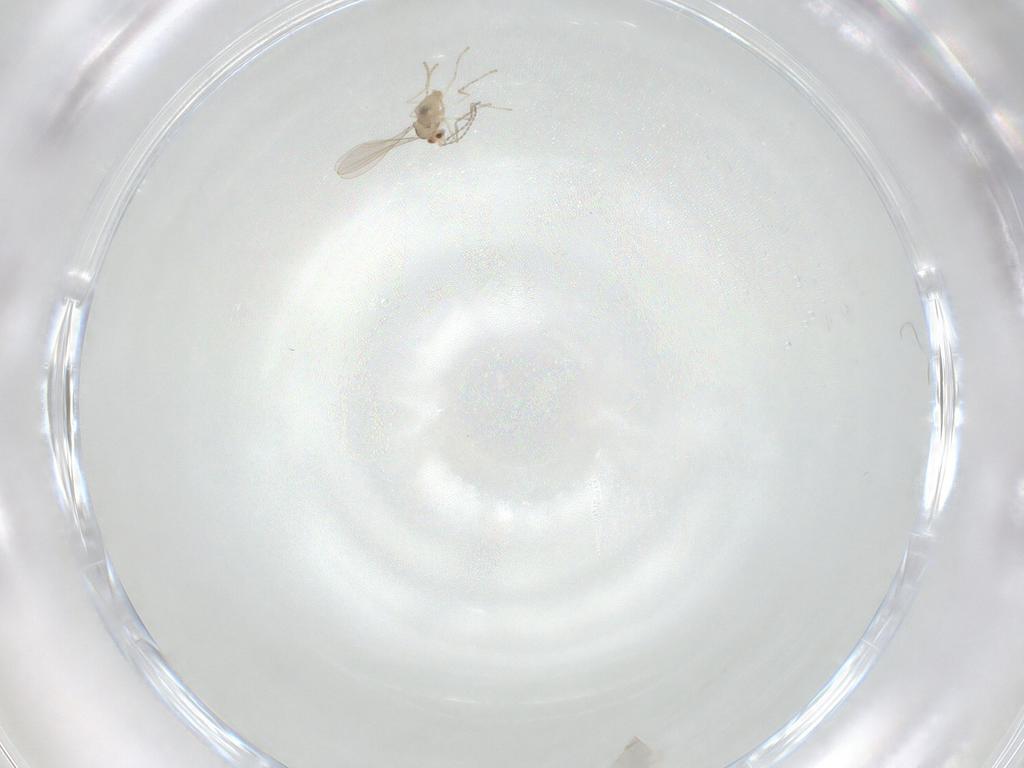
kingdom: Animalia
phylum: Arthropoda
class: Insecta
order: Diptera
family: Cecidomyiidae
